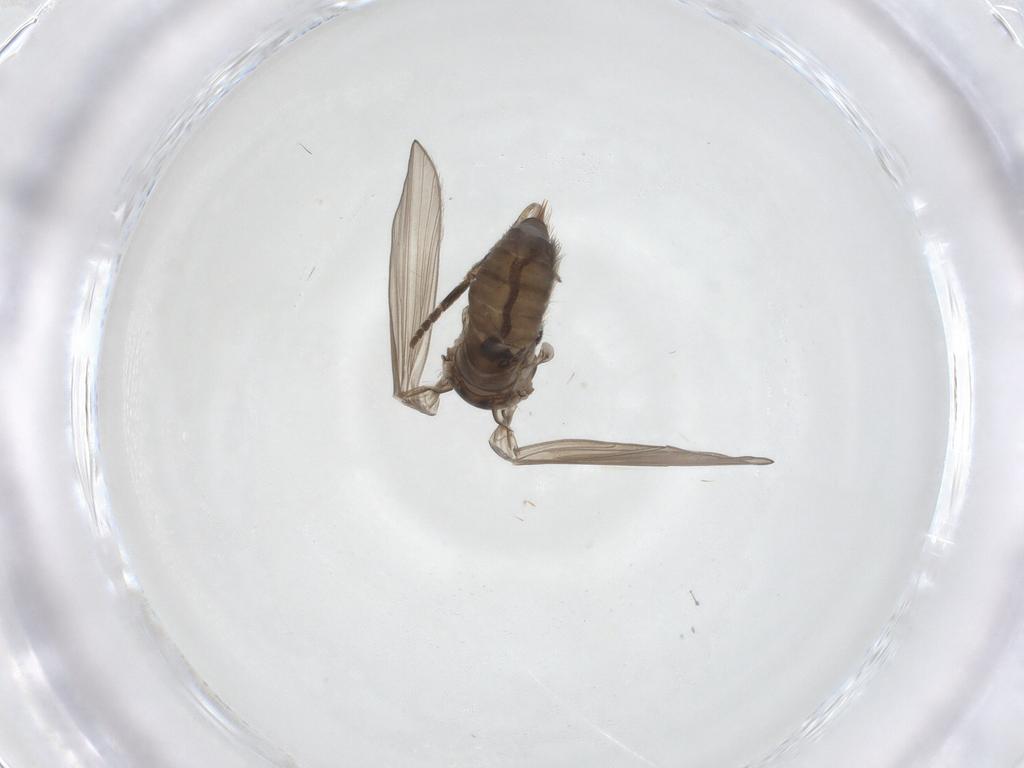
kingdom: Animalia
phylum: Arthropoda
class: Insecta
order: Diptera
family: Psychodidae
